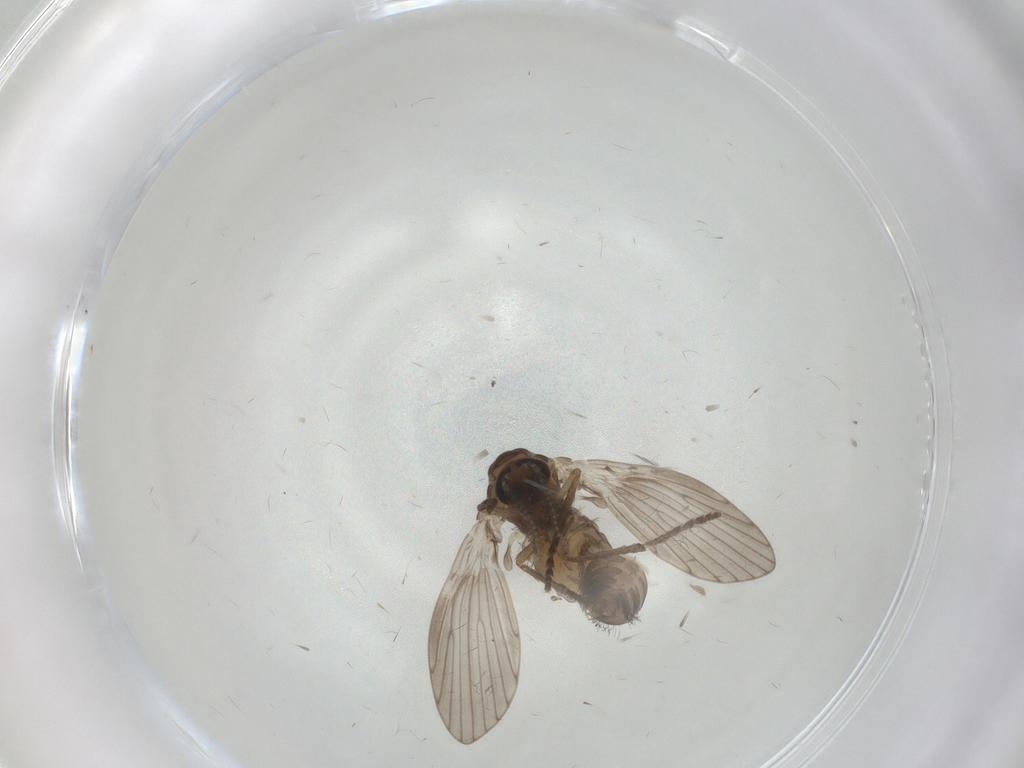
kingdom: Animalia
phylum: Arthropoda
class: Insecta
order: Diptera
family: Psychodidae
